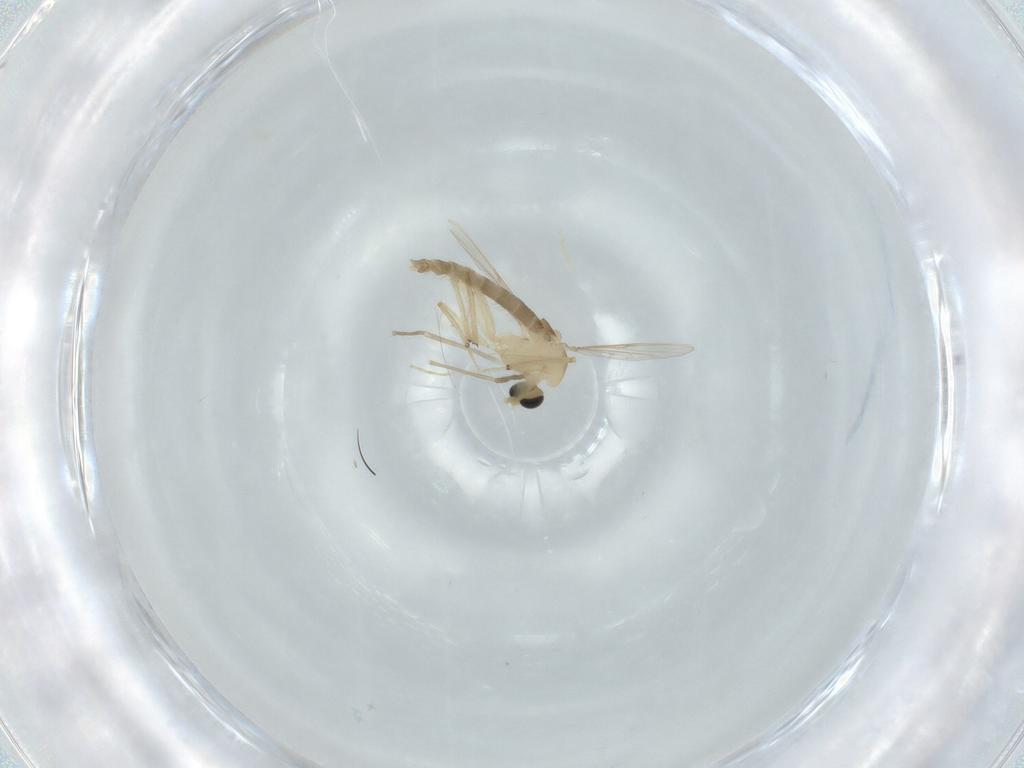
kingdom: Animalia
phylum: Arthropoda
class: Insecta
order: Diptera
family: Chironomidae
